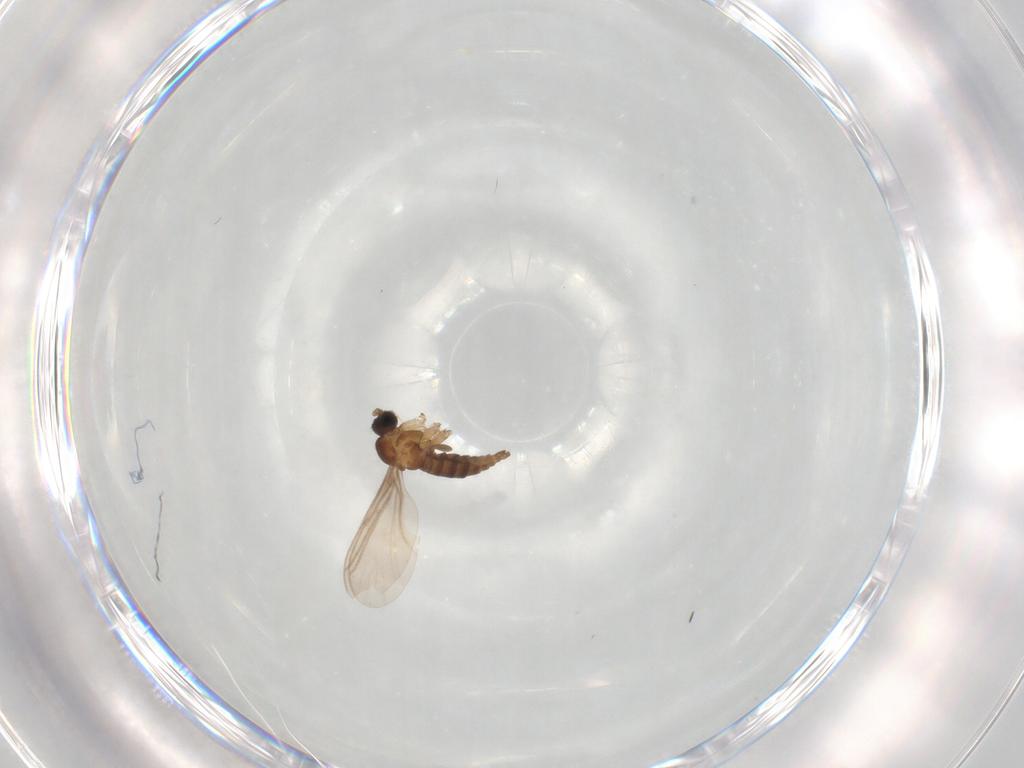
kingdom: Animalia
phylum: Arthropoda
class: Insecta
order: Diptera
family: Dolichopodidae
